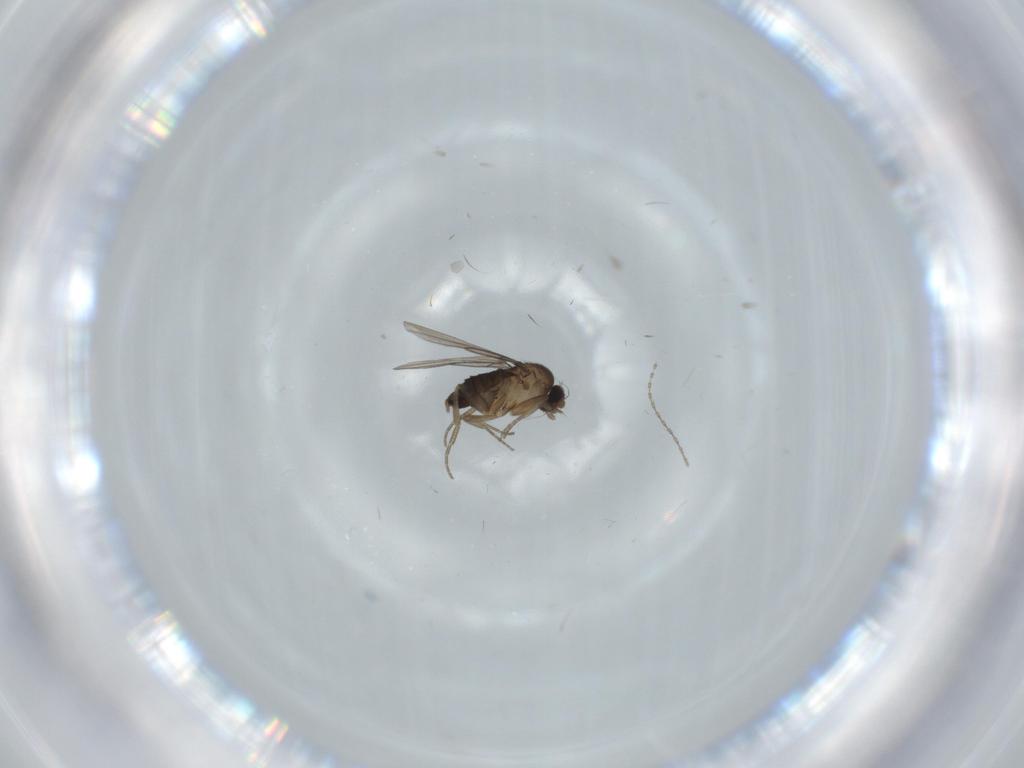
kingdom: Animalia
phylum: Arthropoda
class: Insecta
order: Diptera
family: Phoridae
